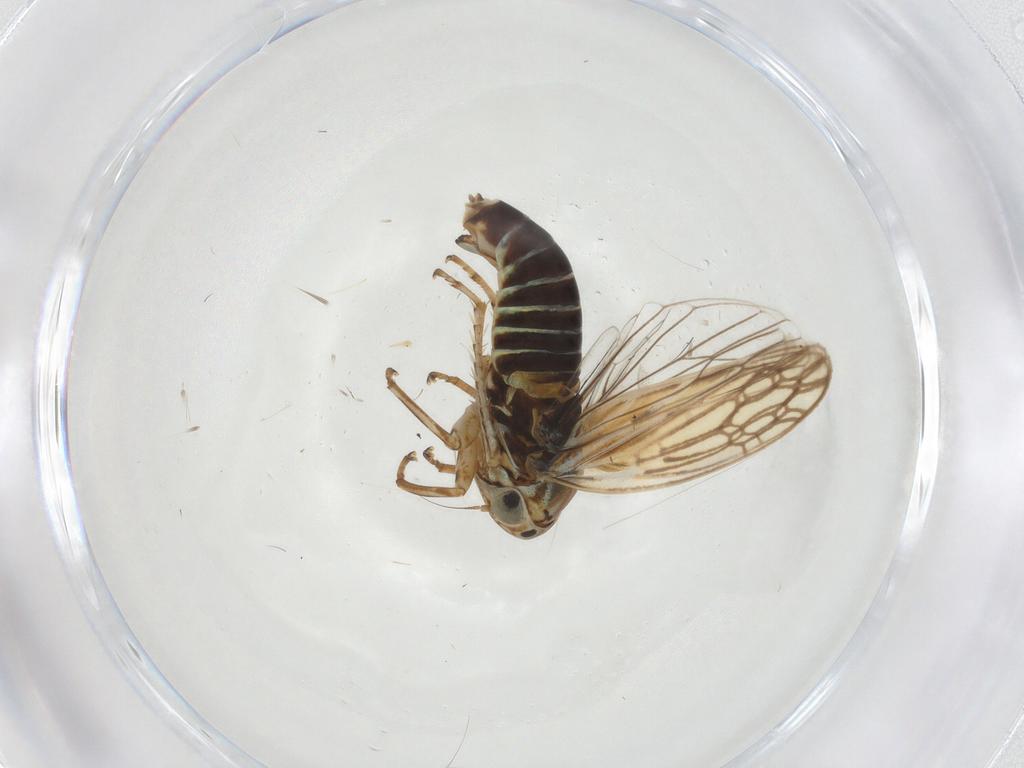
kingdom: Animalia
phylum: Arthropoda
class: Insecta
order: Hemiptera
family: Cicadellidae
